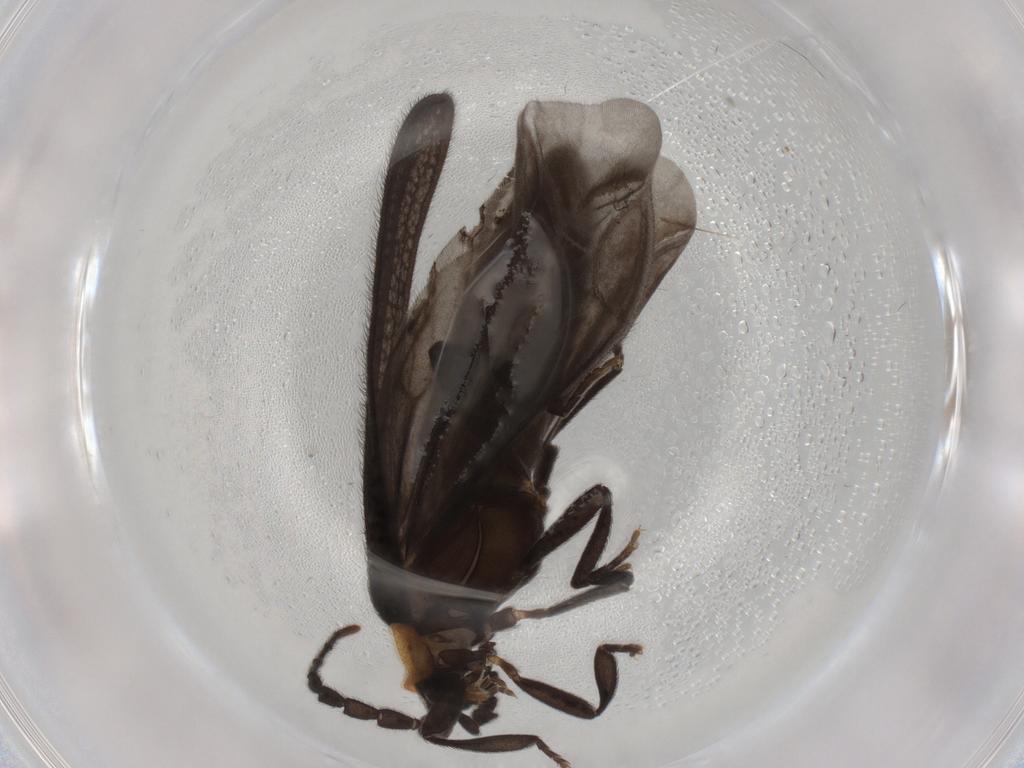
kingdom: Animalia
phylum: Arthropoda
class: Insecta
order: Coleoptera
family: Lycidae
